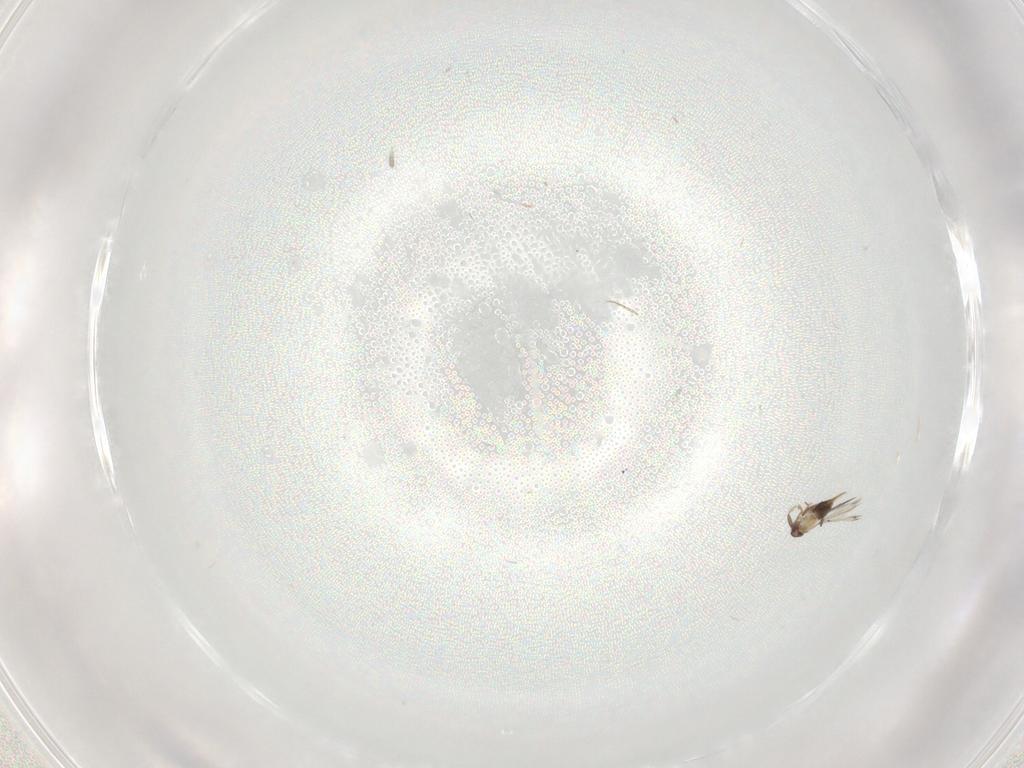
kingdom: Animalia
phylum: Arthropoda
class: Insecta
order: Hymenoptera
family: Mymaridae
